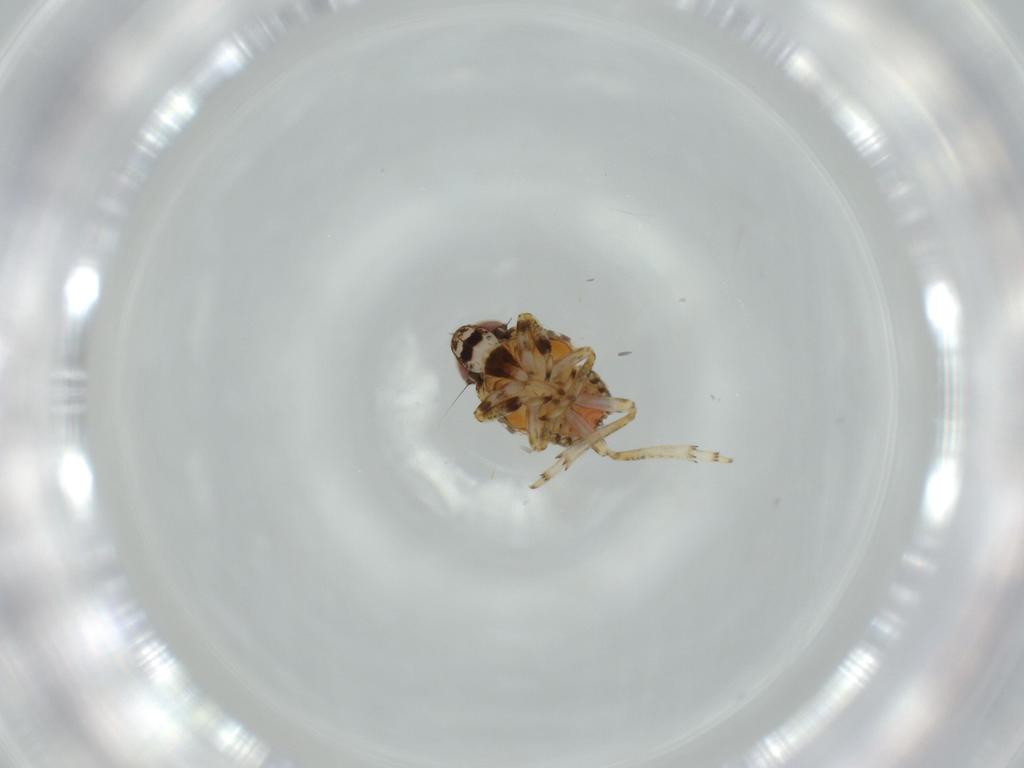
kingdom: Animalia
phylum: Arthropoda
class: Insecta
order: Hemiptera
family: Issidae
